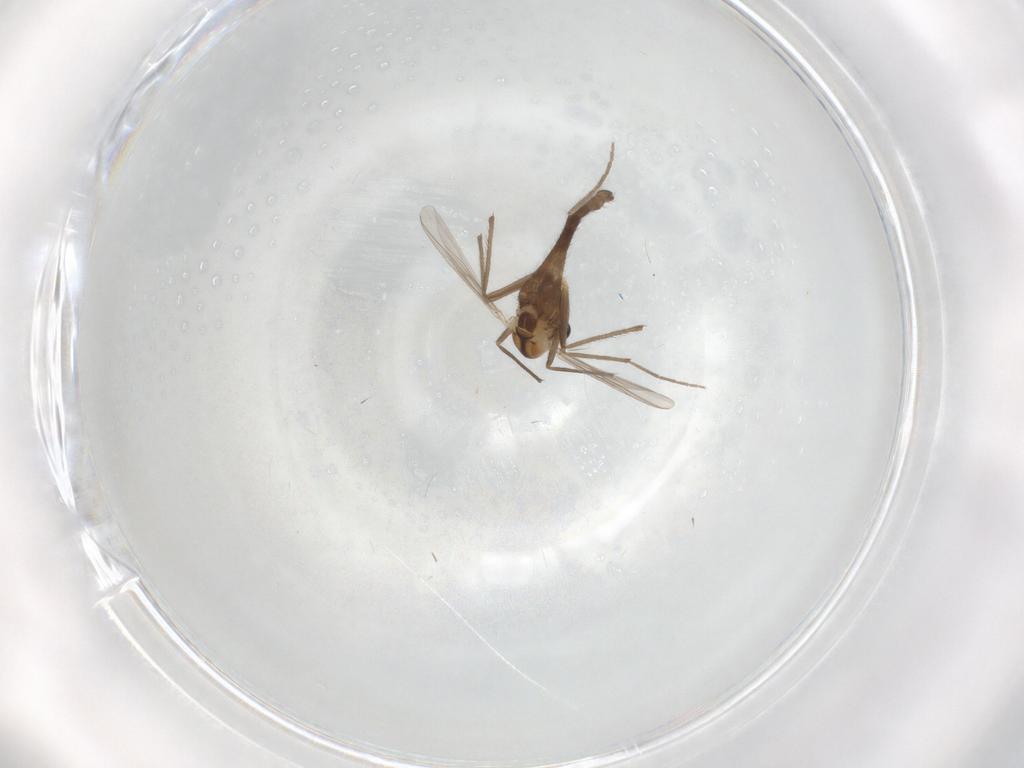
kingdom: Animalia
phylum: Arthropoda
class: Insecta
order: Diptera
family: Chironomidae
